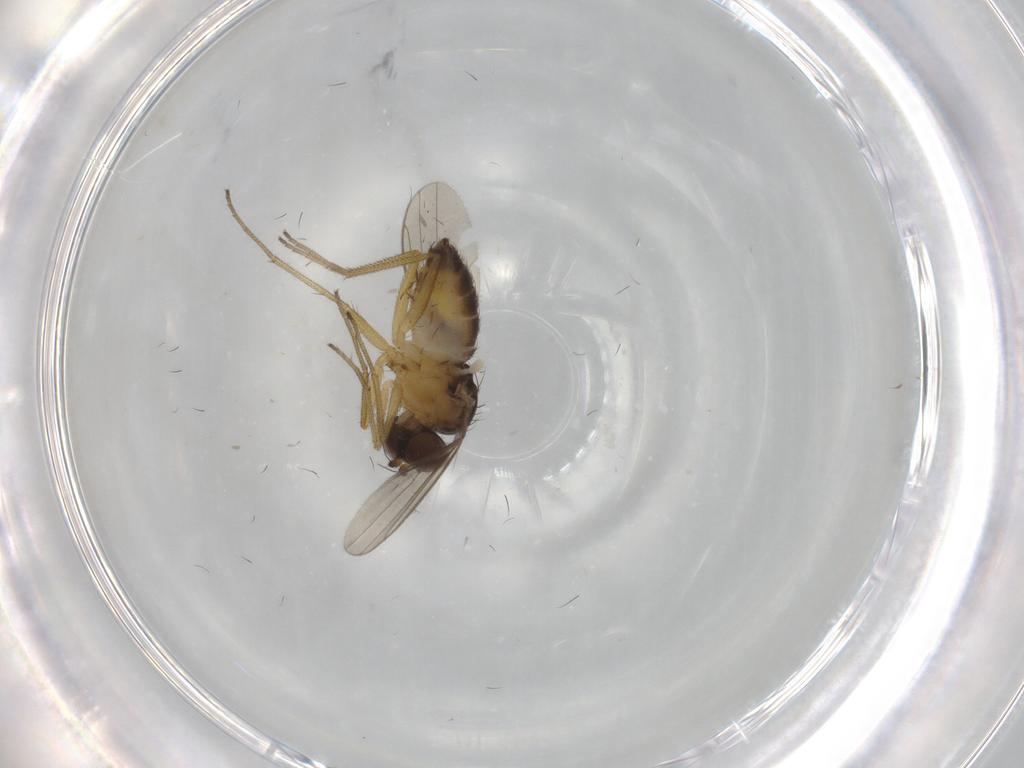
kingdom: Animalia
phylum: Arthropoda
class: Insecta
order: Diptera
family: Dolichopodidae
